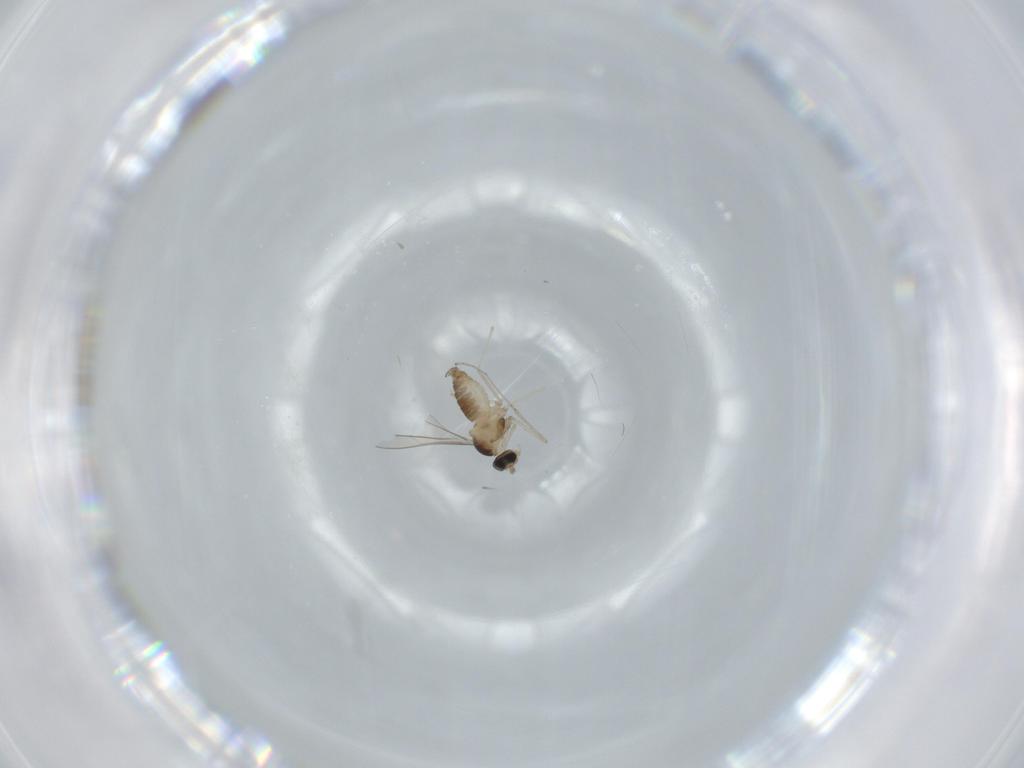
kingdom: Animalia
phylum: Arthropoda
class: Insecta
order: Diptera
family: Cecidomyiidae
